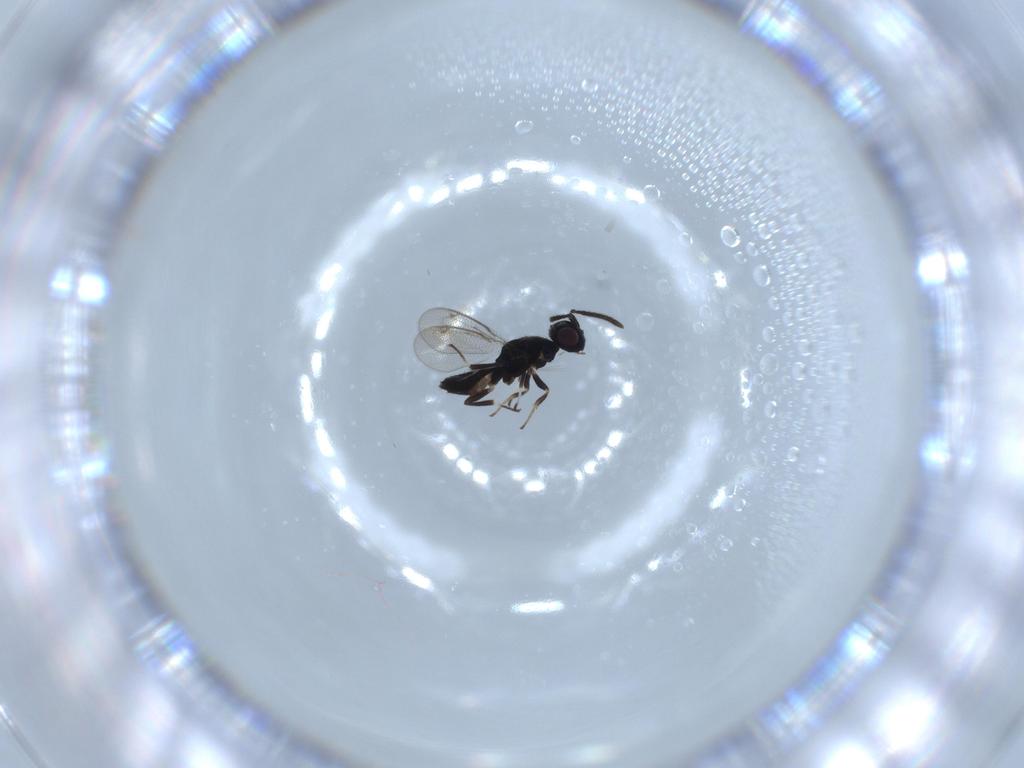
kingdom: Animalia
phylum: Arthropoda
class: Insecta
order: Hymenoptera
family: Eupelmidae
